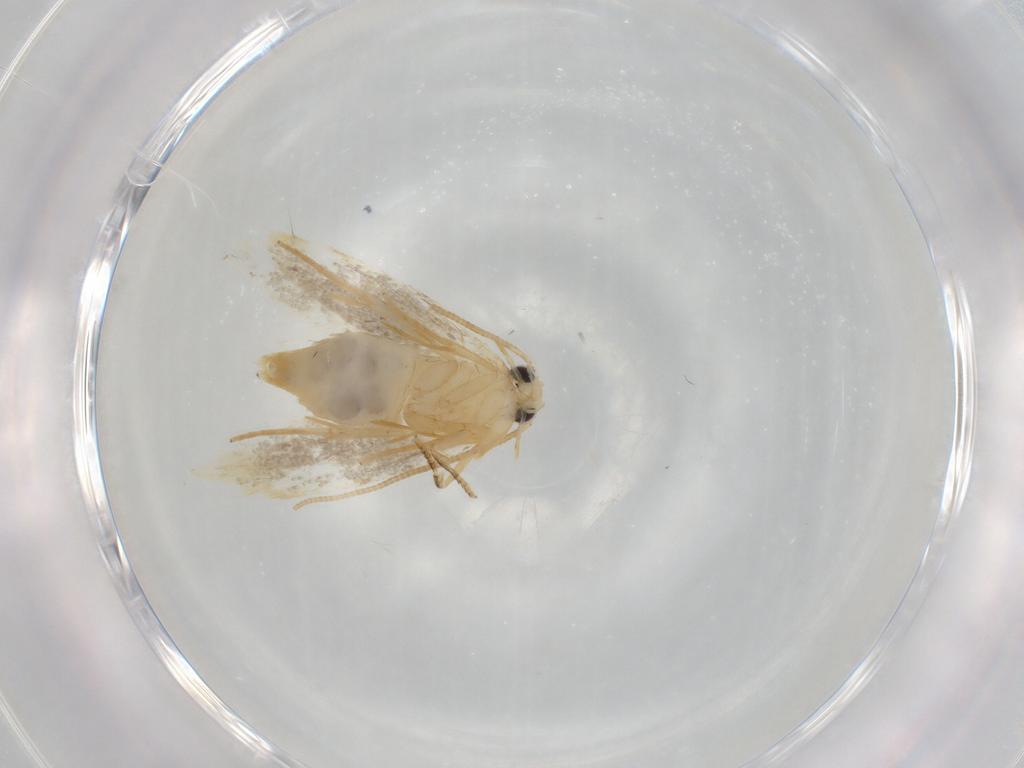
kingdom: Animalia
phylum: Arthropoda
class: Insecta
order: Lepidoptera
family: Nepticulidae
